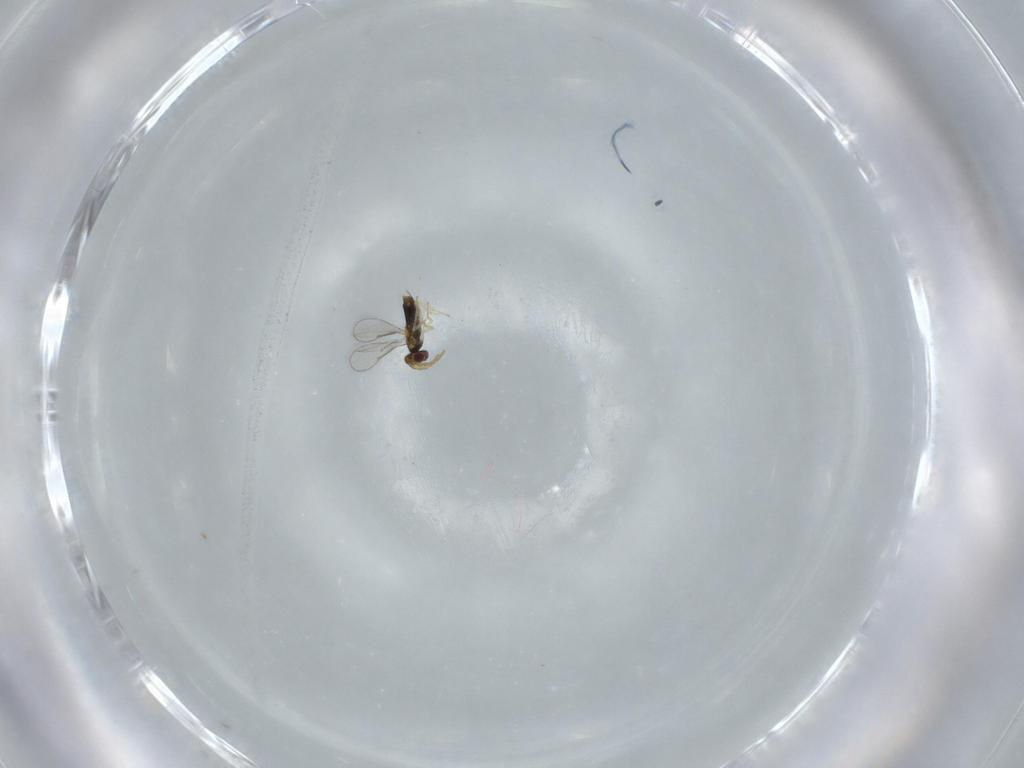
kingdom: Animalia
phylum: Arthropoda
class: Insecta
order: Hymenoptera
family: Aphelinidae
